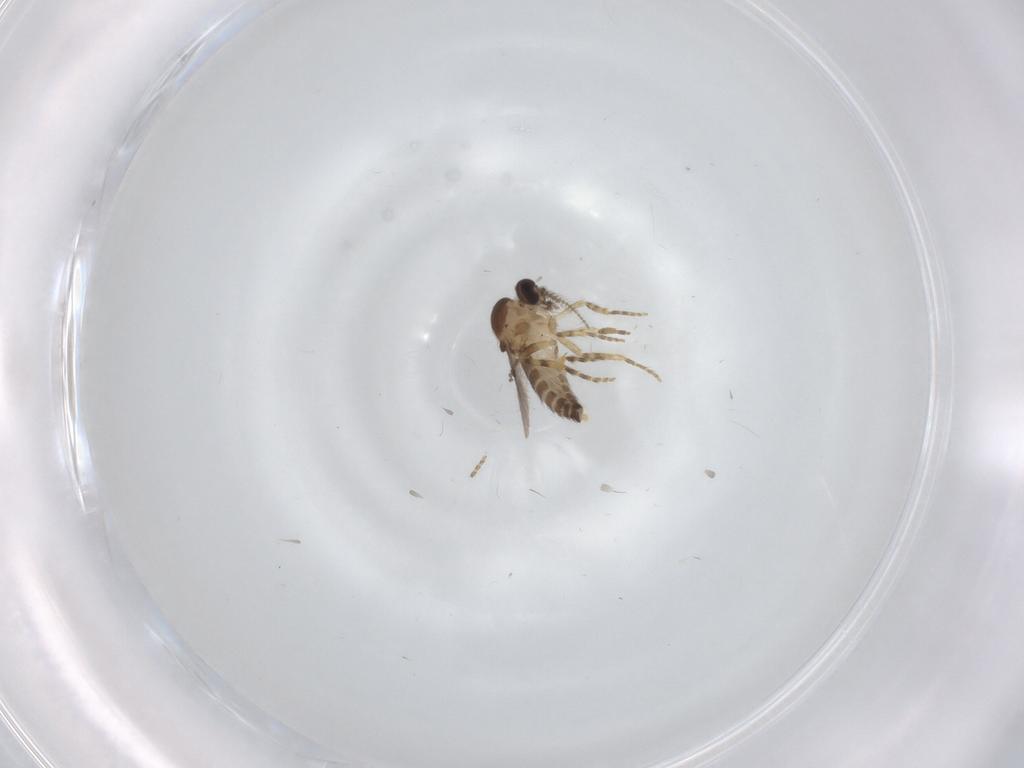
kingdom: Animalia
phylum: Arthropoda
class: Insecta
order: Diptera
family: Ceratopogonidae
